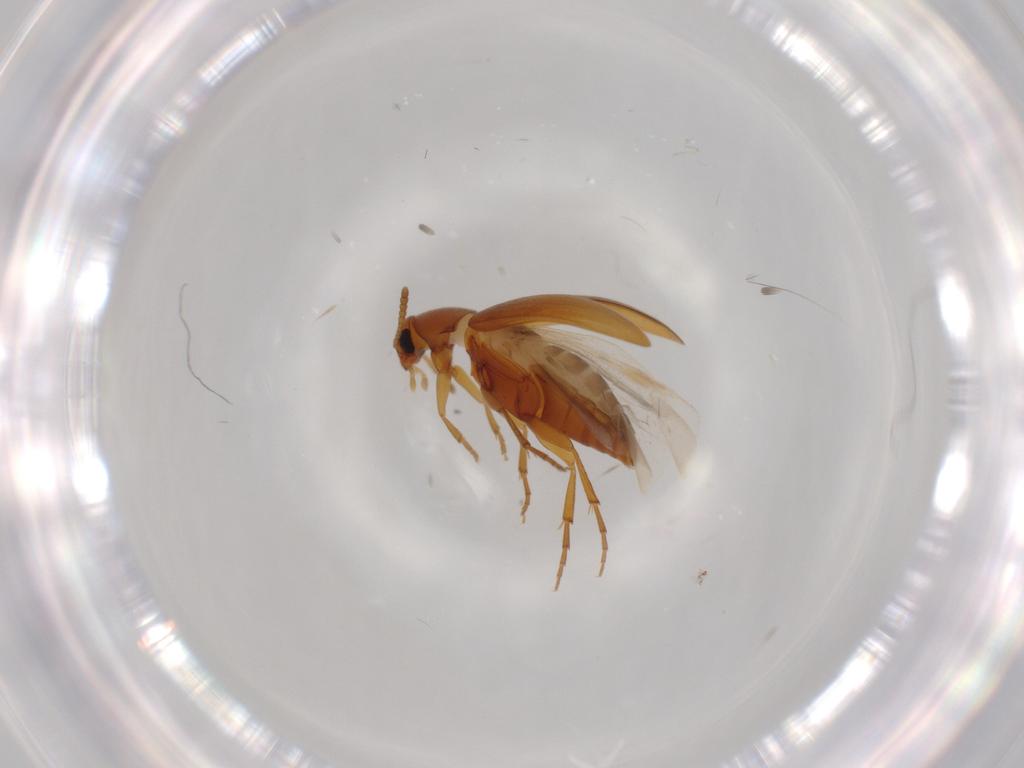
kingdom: Animalia
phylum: Arthropoda
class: Insecta
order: Coleoptera
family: Scraptiidae
